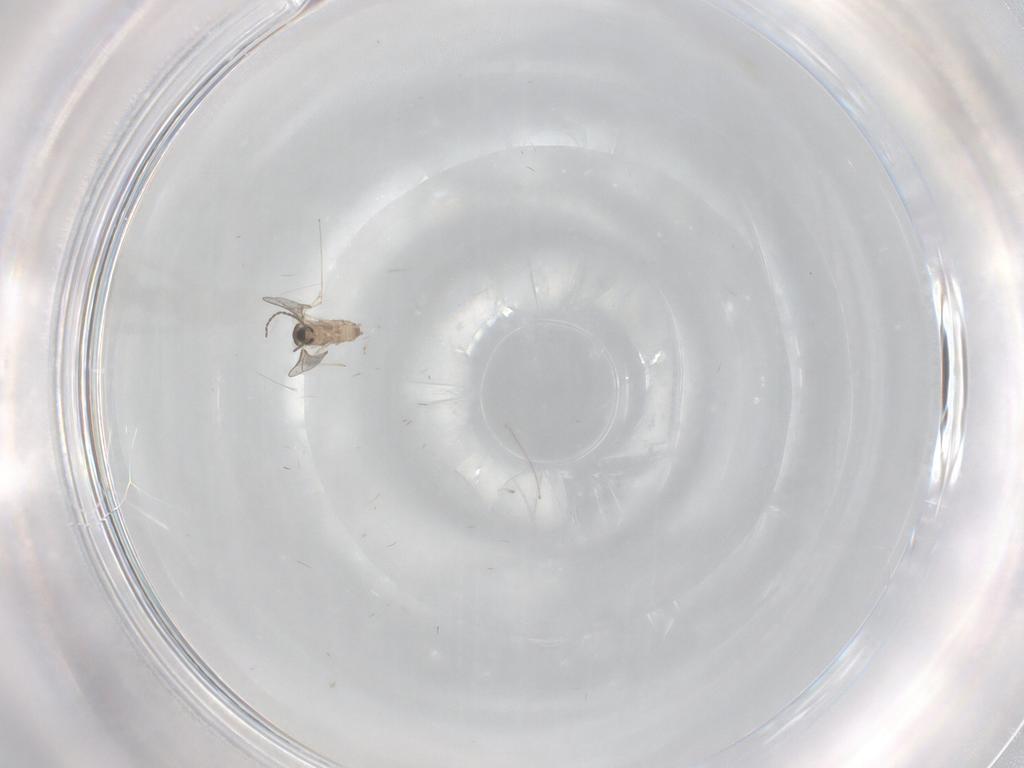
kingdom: Animalia
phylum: Arthropoda
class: Insecta
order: Diptera
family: Cecidomyiidae
